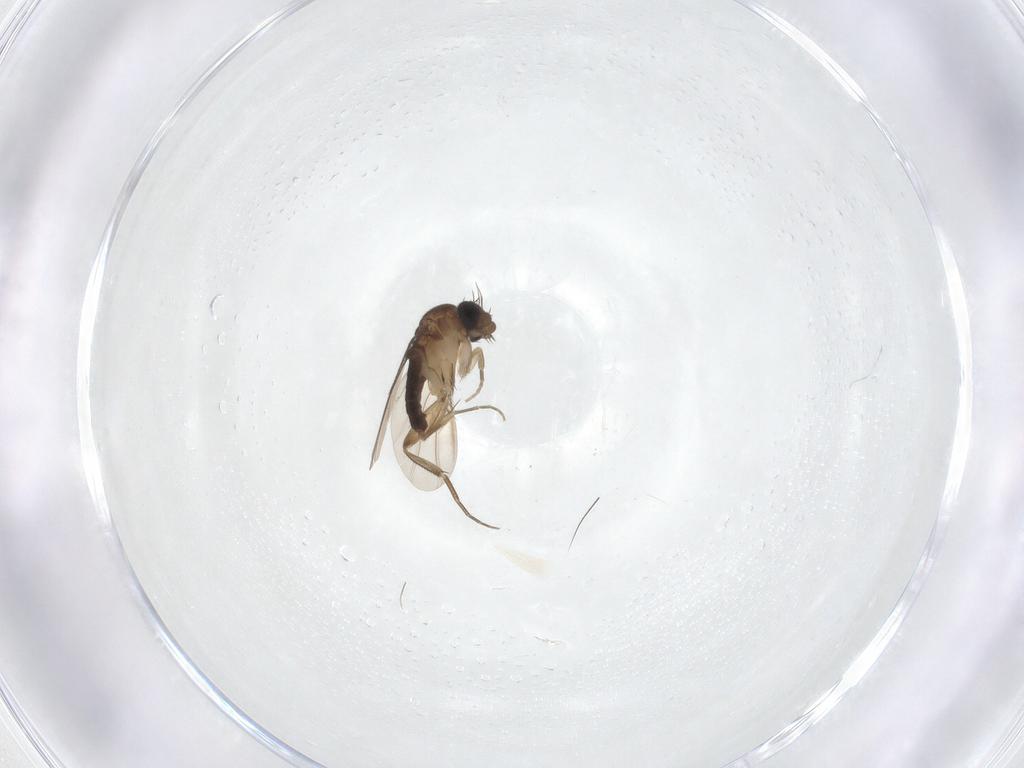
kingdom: Animalia
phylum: Arthropoda
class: Insecta
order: Diptera
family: Phoridae
